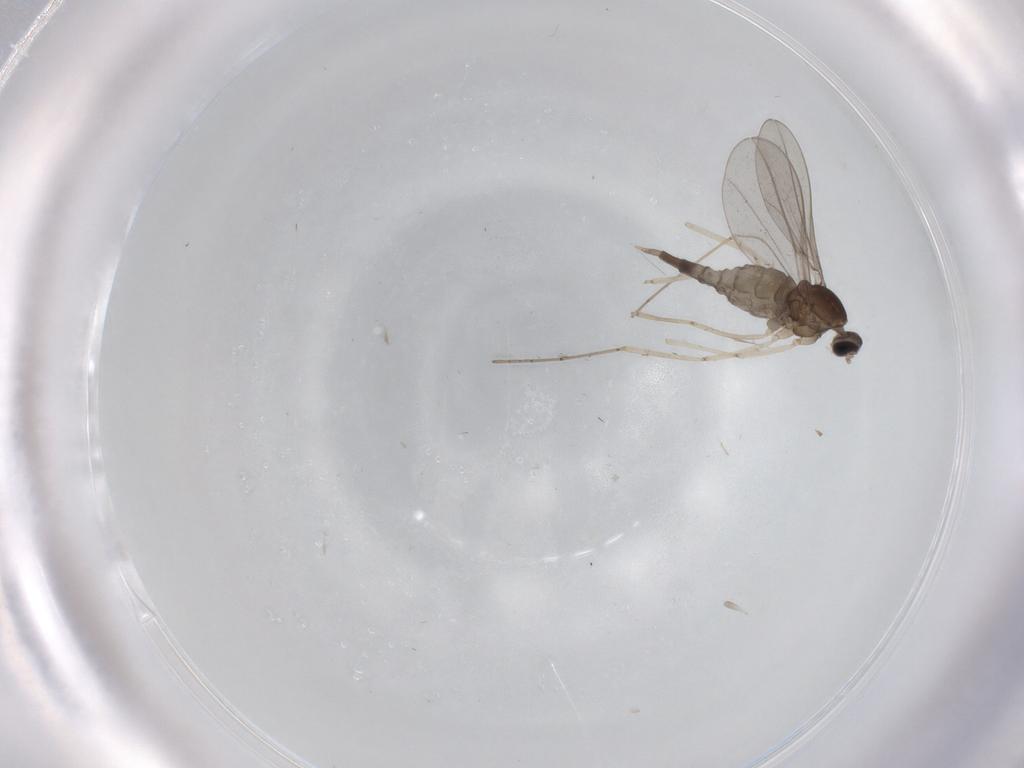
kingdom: Animalia
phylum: Arthropoda
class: Insecta
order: Diptera
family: Cecidomyiidae
